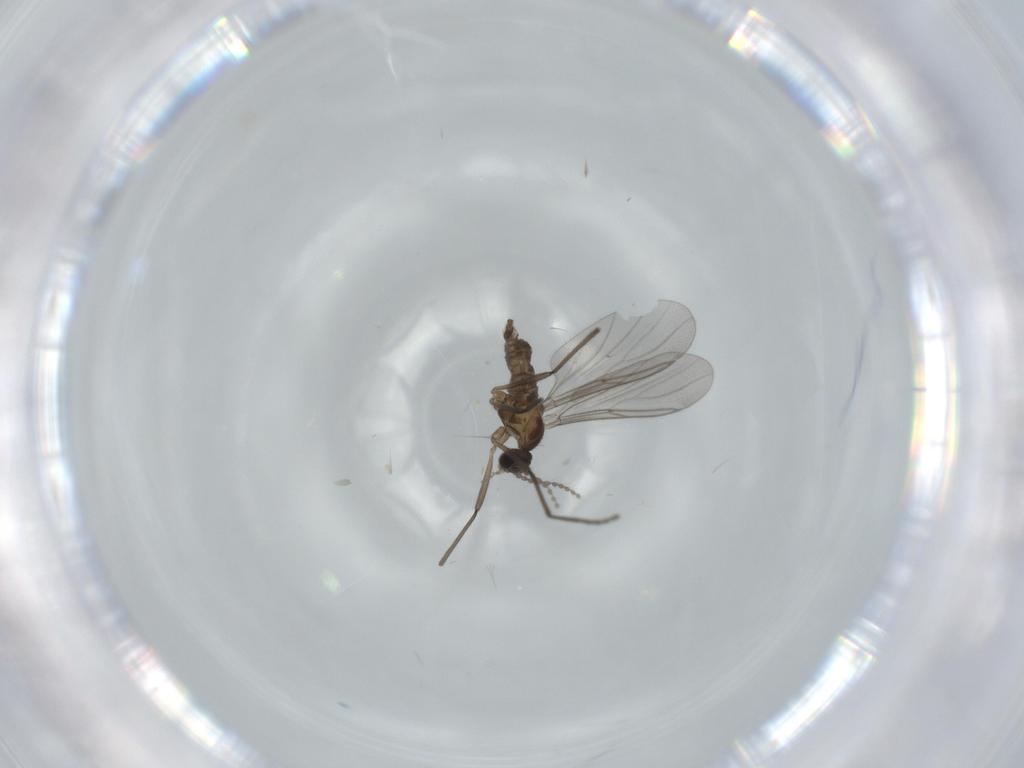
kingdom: Animalia
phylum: Arthropoda
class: Insecta
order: Diptera
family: Cecidomyiidae
